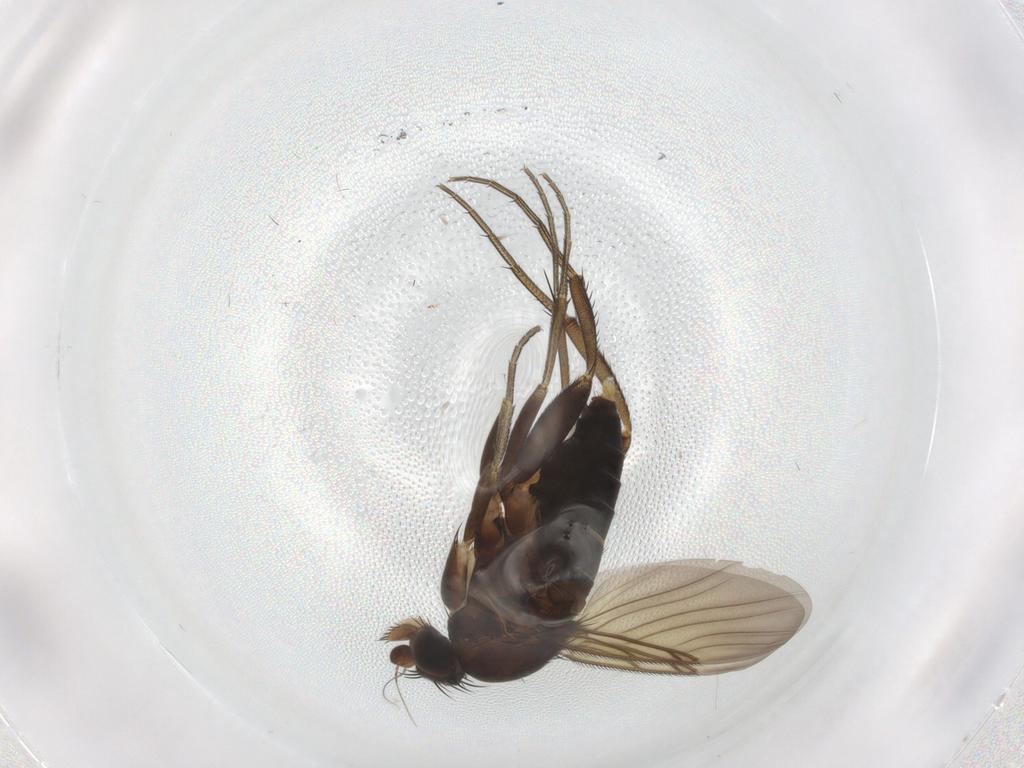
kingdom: Animalia
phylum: Arthropoda
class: Insecta
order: Diptera
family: Phoridae
